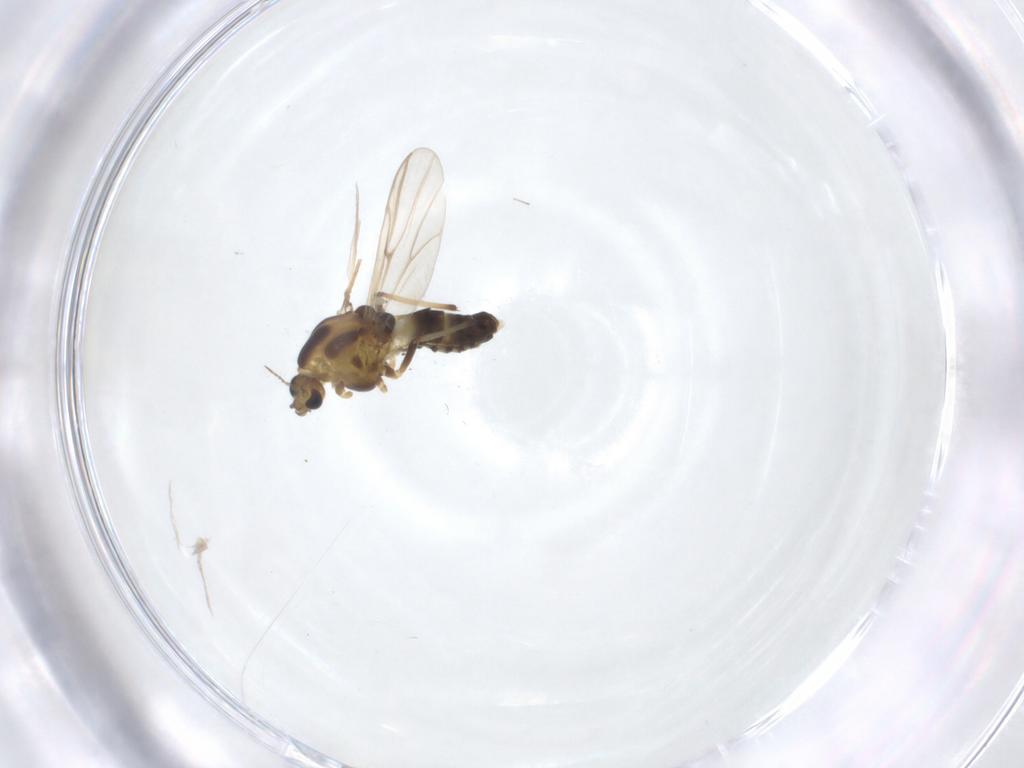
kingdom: Animalia
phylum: Arthropoda
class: Insecta
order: Diptera
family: Chironomidae
